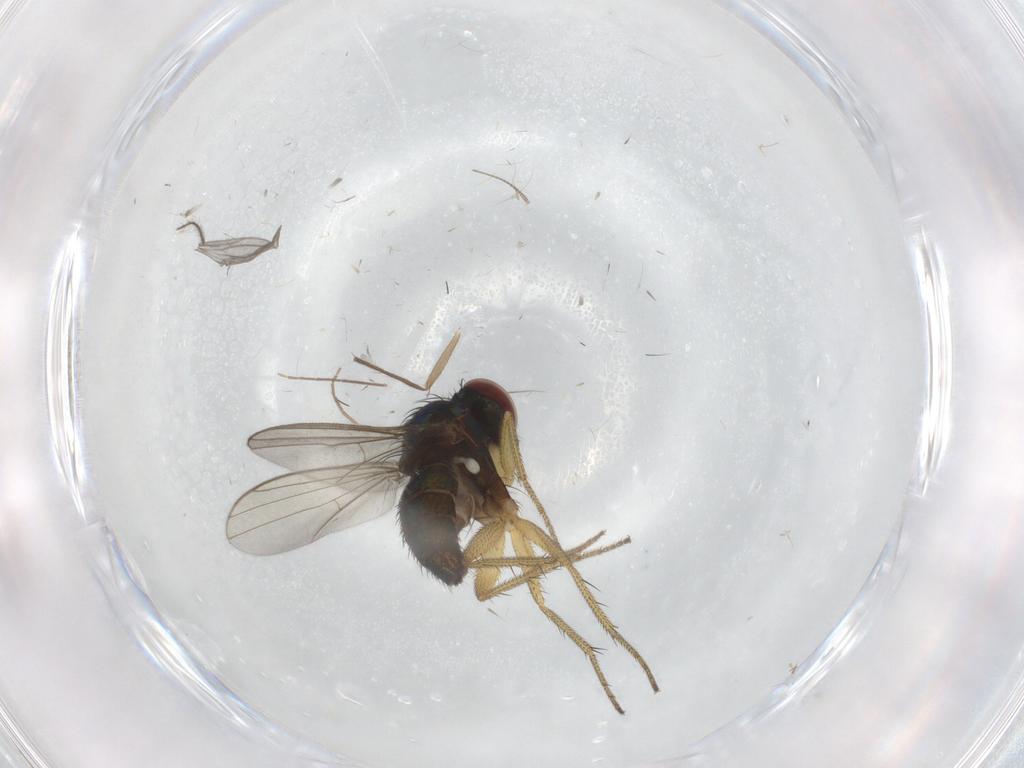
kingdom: Animalia
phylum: Arthropoda
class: Insecta
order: Diptera
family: Ceratopogonidae
